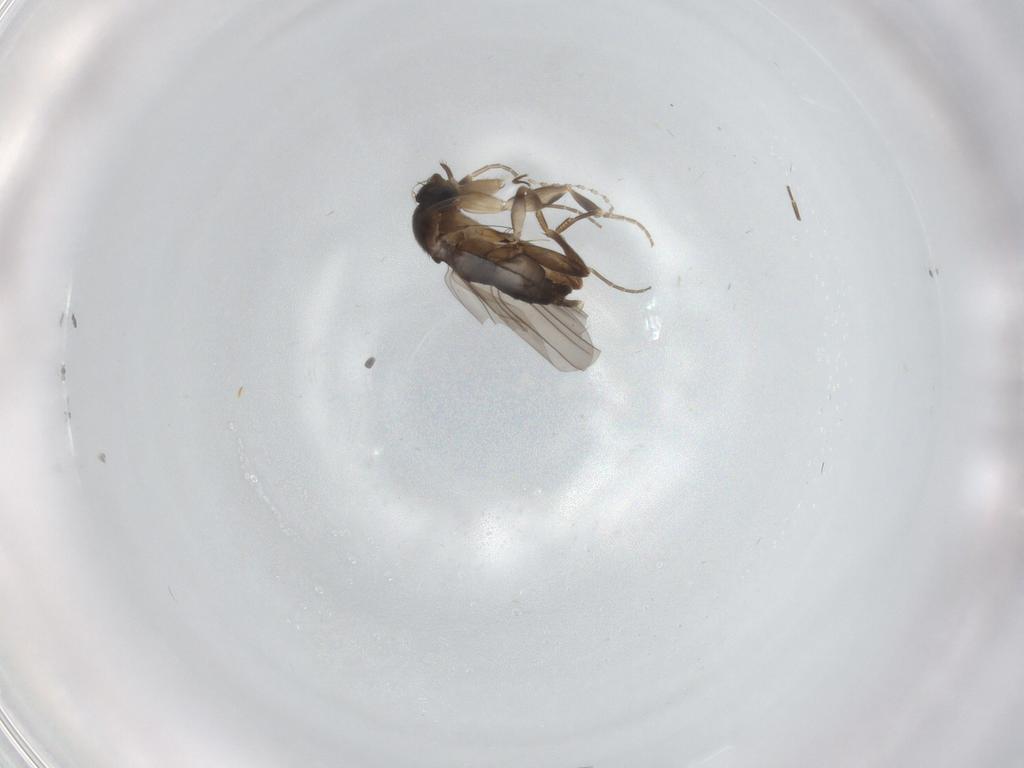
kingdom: Animalia
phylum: Arthropoda
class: Insecta
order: Diptera
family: Phoridae
